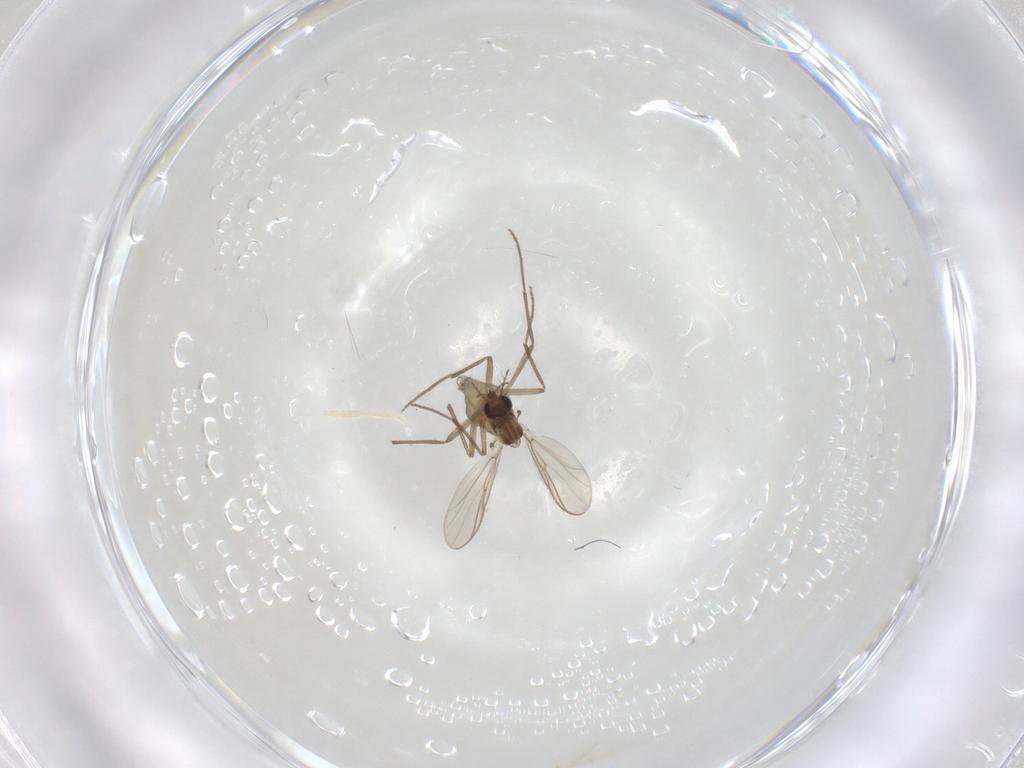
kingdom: Animalia
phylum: Arthropoda
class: Insecta
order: Diptera
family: Chironomidae
